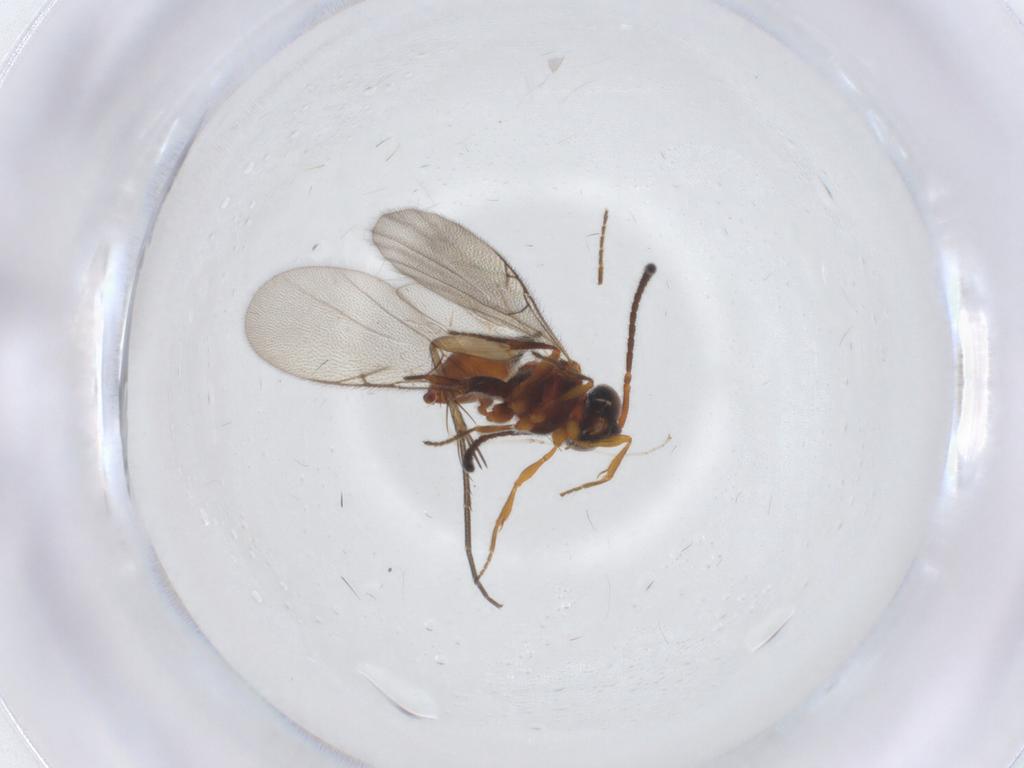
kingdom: Animalia
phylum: Arthropoda
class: Insecta
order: Hymenoptera
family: Diapriidae
